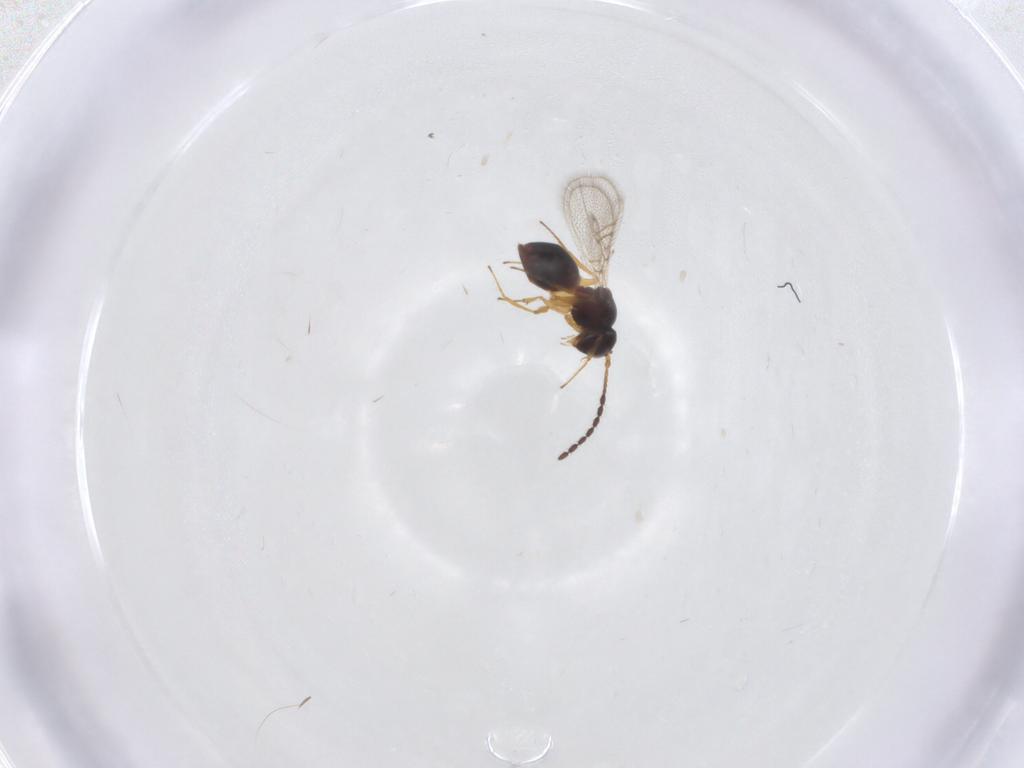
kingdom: Animalia
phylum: Arthropoda
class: Insecta
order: Hymenoptera
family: Figitidae
